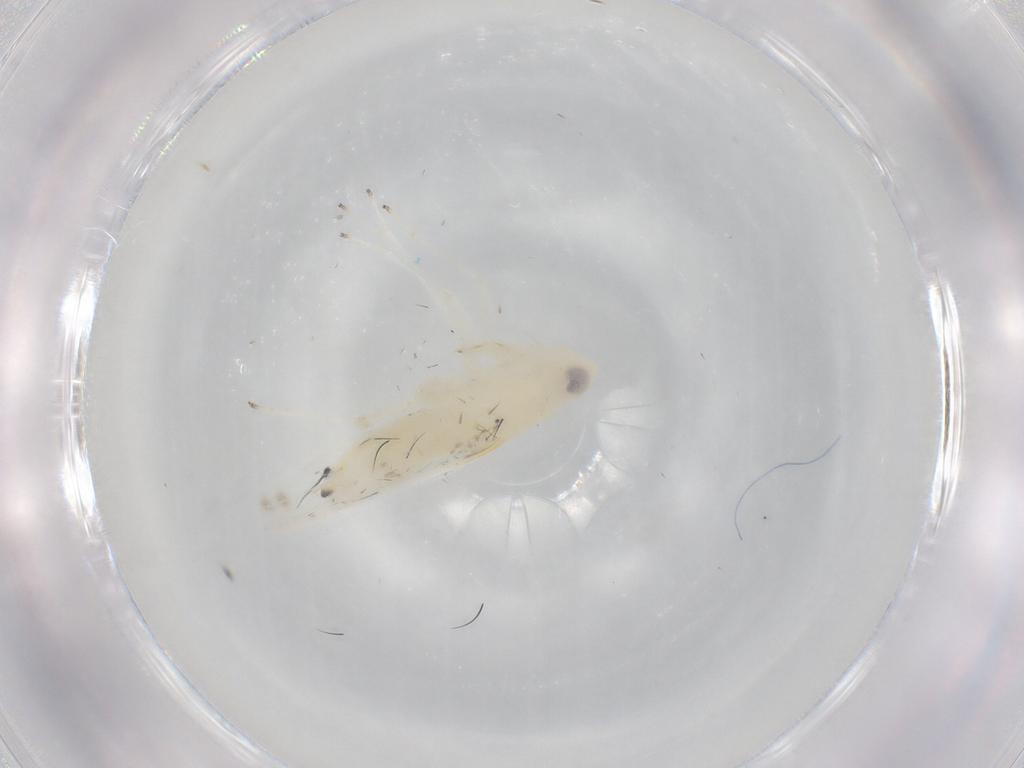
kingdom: Animalia
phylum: Arthropoda
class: Insecta
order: Hemiptera
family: Cicadellidae
